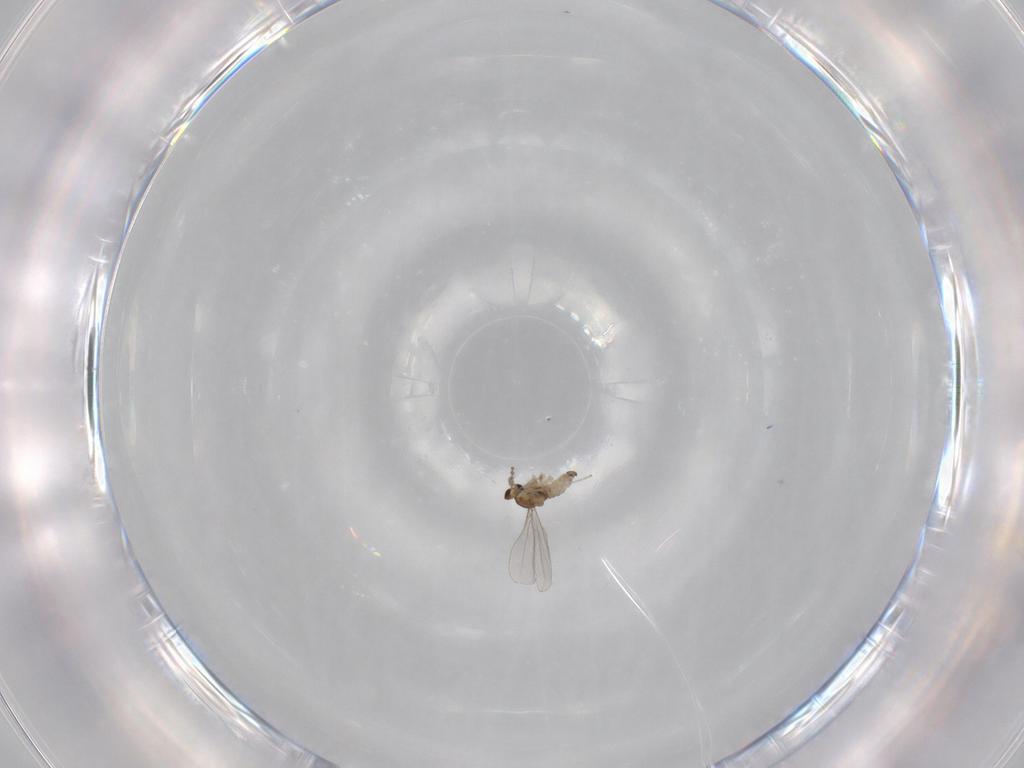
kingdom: Animalia
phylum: Arthropoda
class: Insecta
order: Diptera
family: Cecidomyiidae
